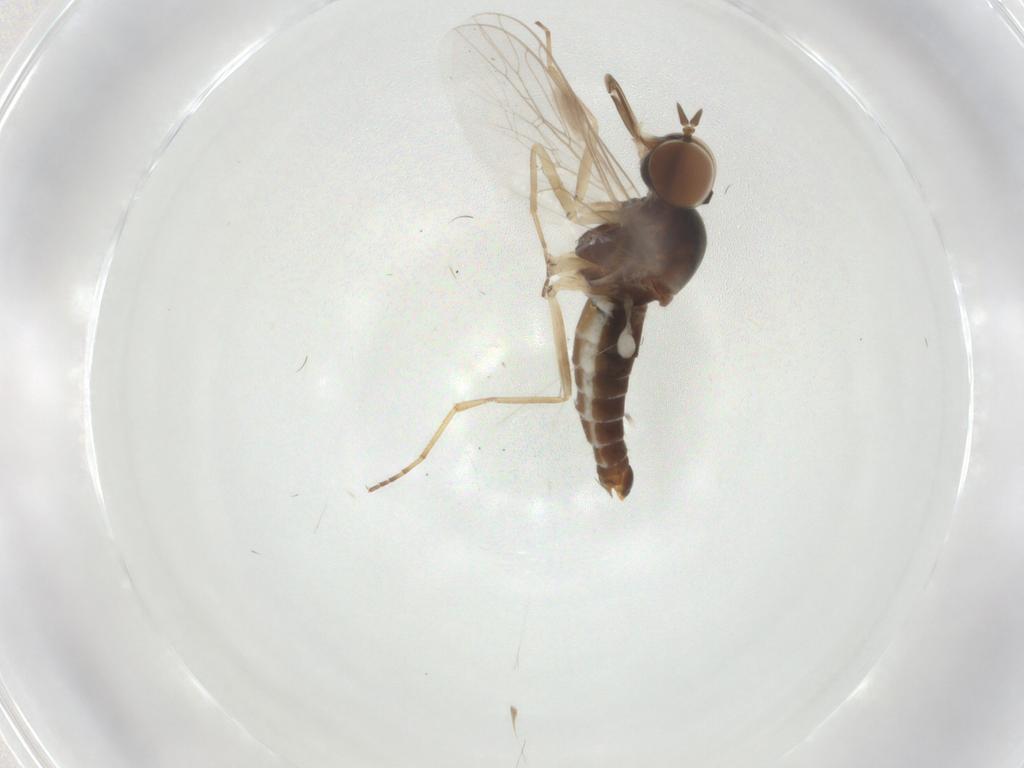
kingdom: Animalia
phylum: Arthropoda
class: Insecta
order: Diptera
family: Scenopinidae
